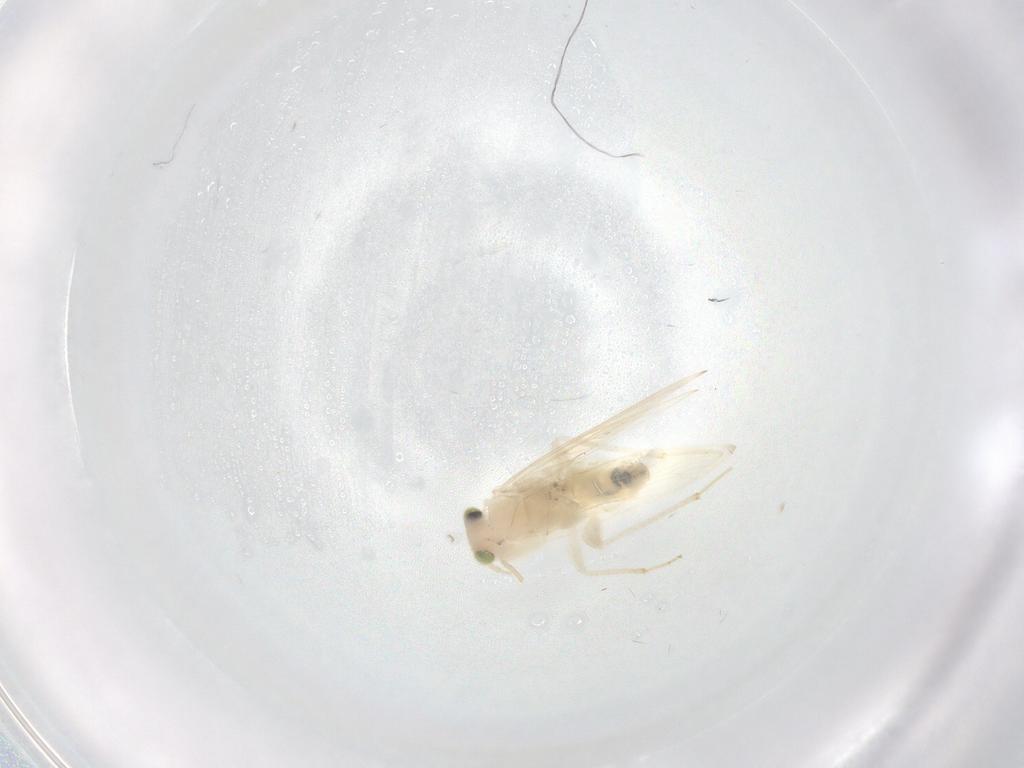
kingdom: Animalia
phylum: Arthropoda
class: Insecta
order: Psocodea
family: Lepidopsocidae
